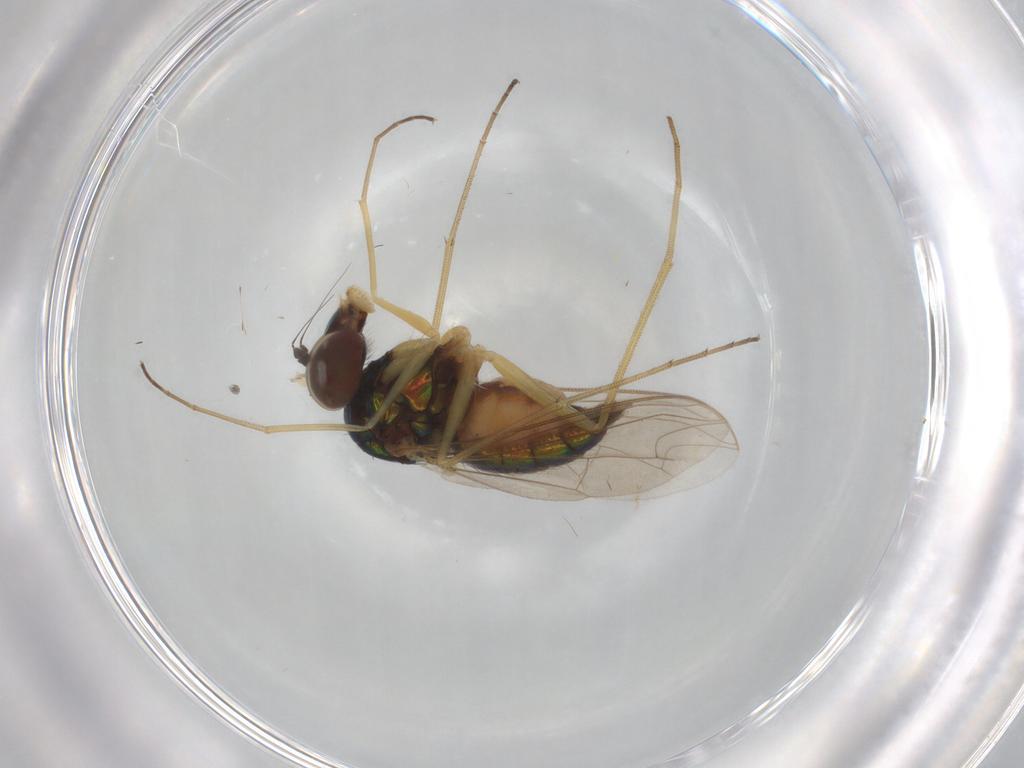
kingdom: Animalia
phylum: Arthropoda
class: Insecta
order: Diptera
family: Dolichopodidae
